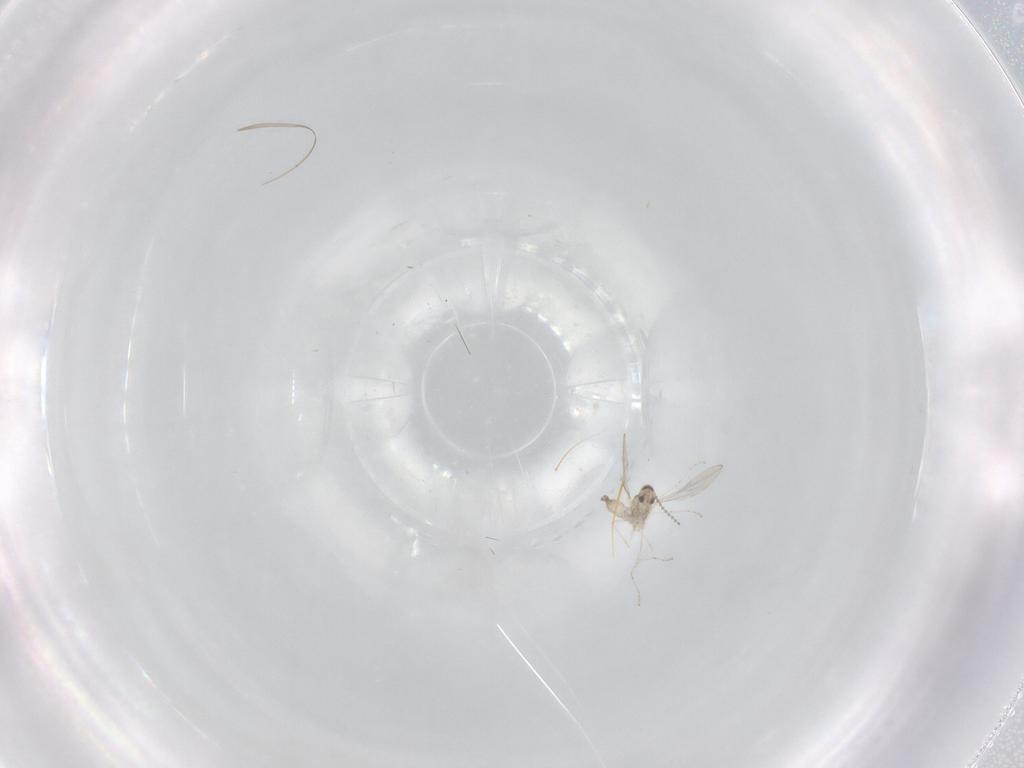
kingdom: Animalia
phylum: Arthropoda
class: Insecta
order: Diptera
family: Cecidomyiidae
